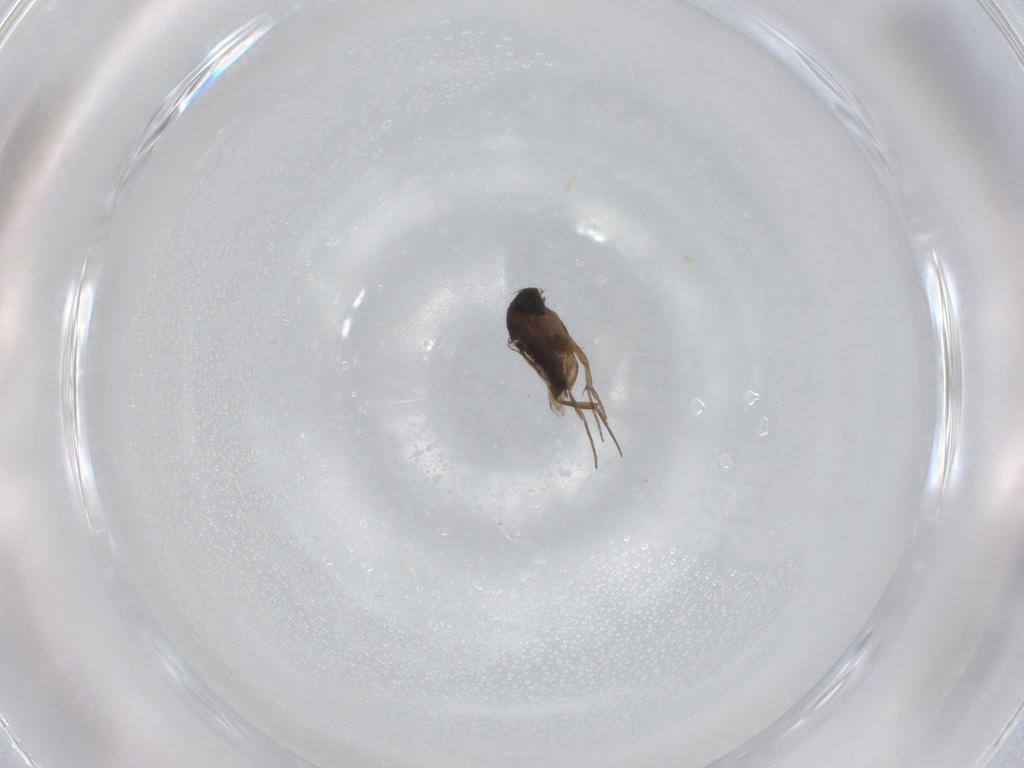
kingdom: Animalia
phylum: Arthropoda
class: Insecta
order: Diptera
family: Phoridae
